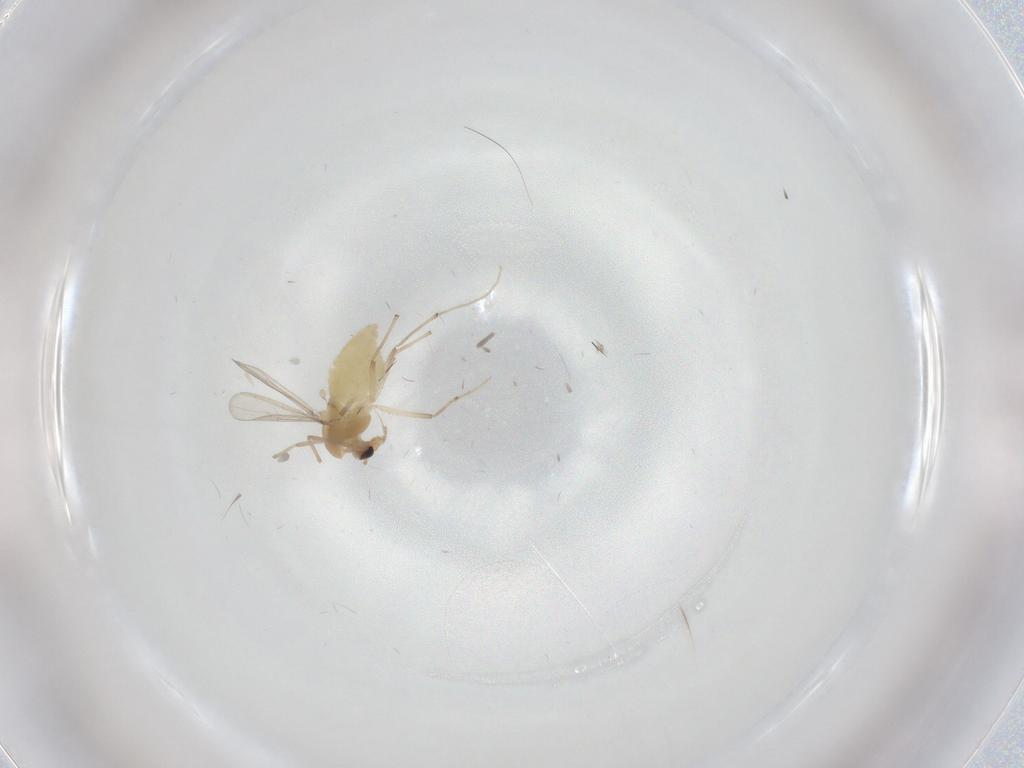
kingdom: Animalia
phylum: Arthropoda
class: Insecta
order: Diptera
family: Chironomidae
